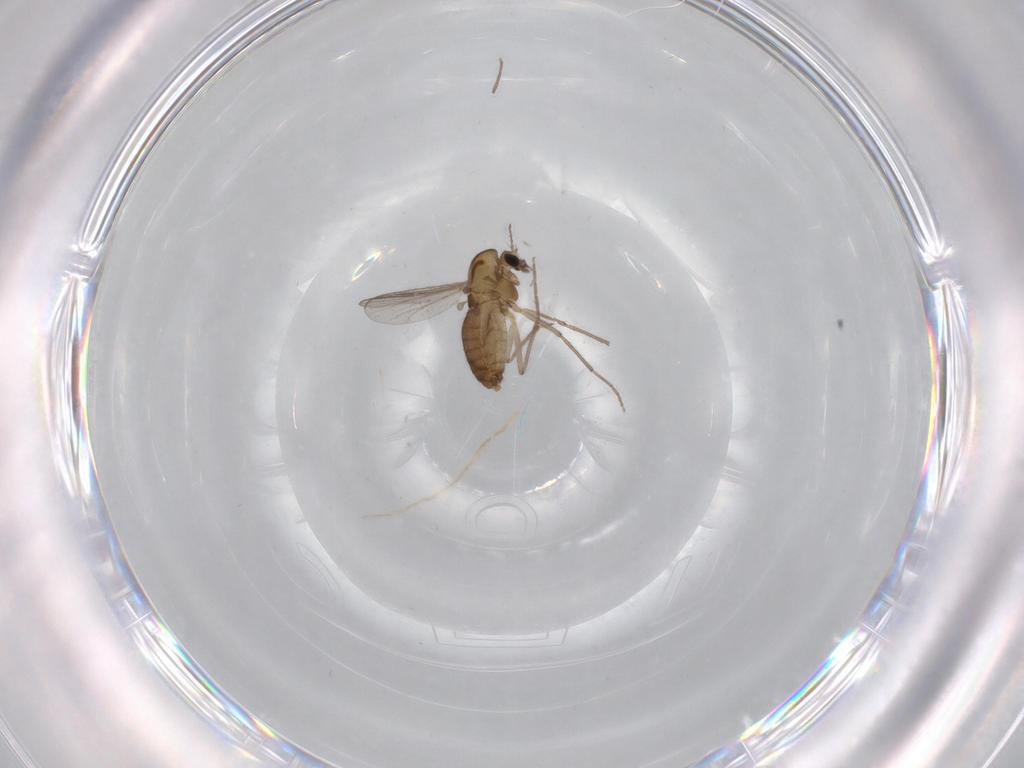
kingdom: Animalia
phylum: Arthropoda
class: Insecta
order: Diptera
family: Chironomidae
